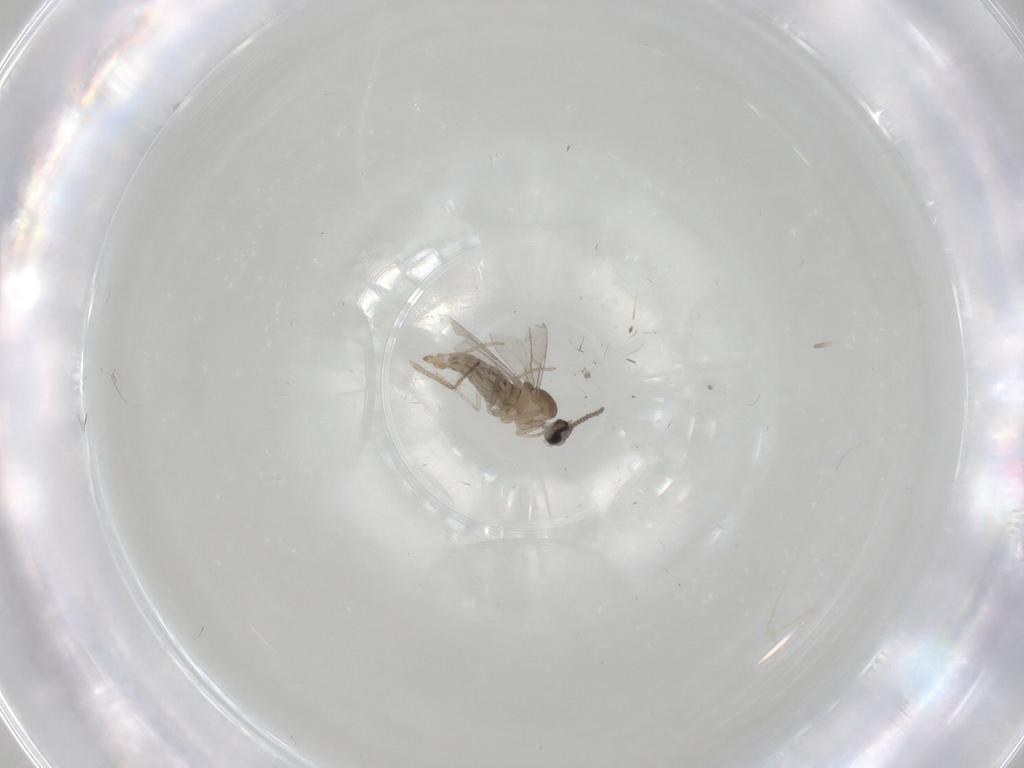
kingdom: Animalia
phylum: Arthropoda
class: Insecta
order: Diptera
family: Cecidomyiidae
